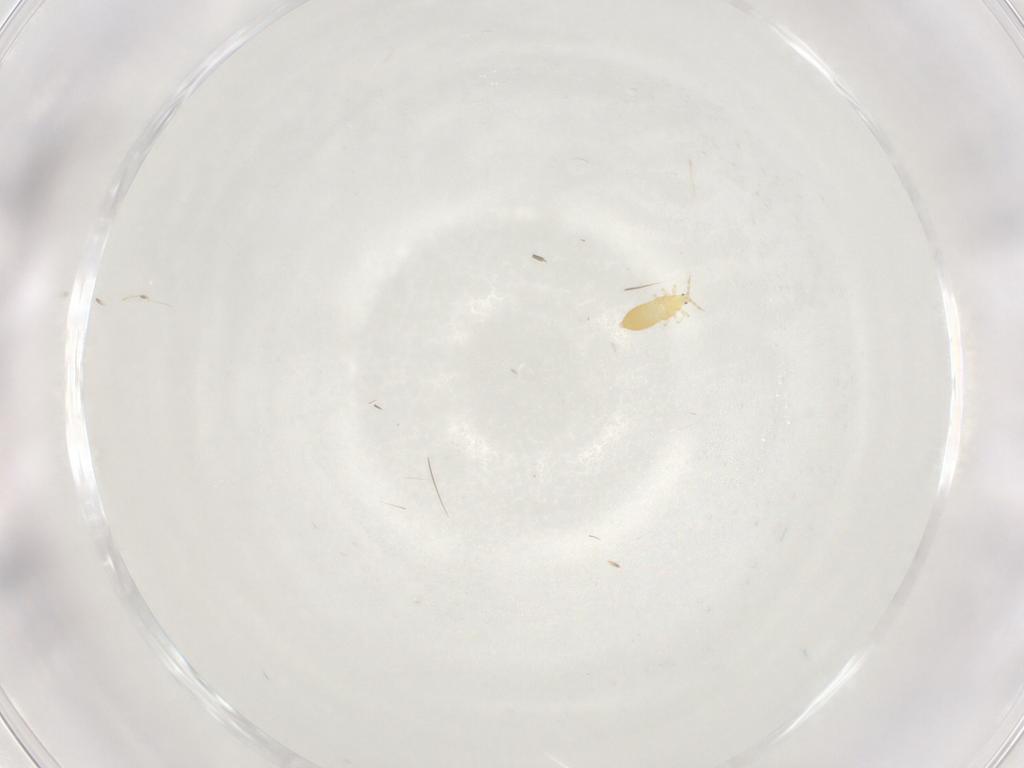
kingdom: Animalia
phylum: Arthropoda
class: Insecta
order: Hymenoptera
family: Eulophidae
